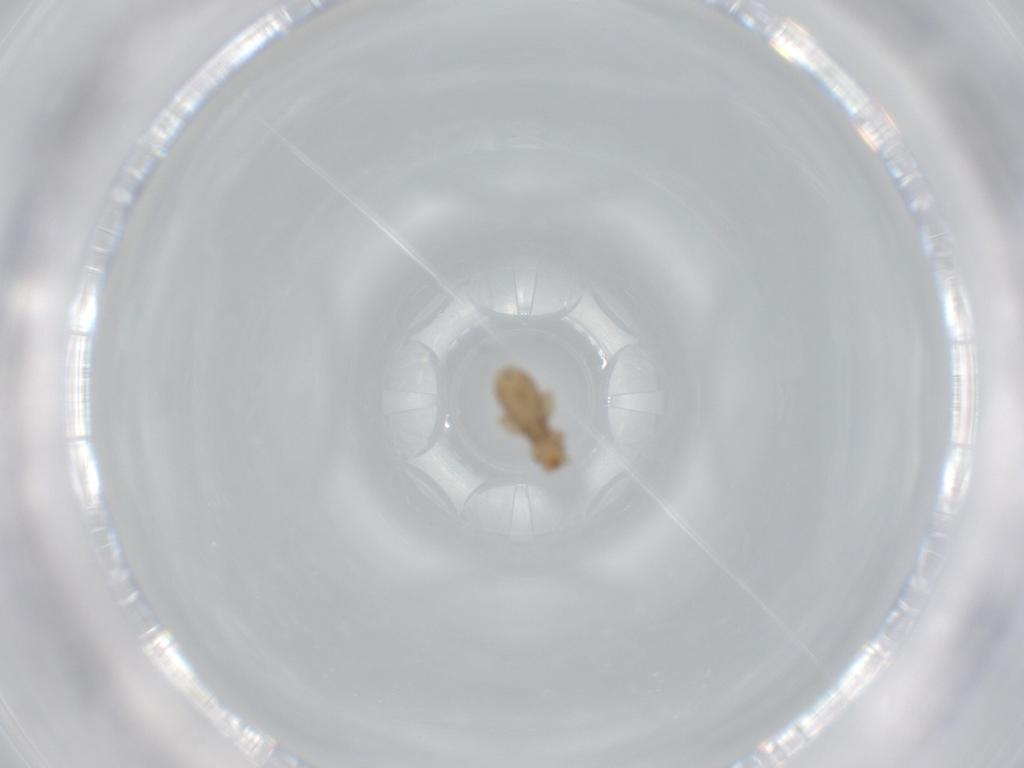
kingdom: Animalia
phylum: Arthropoda
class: Insecta
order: Psocodea
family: Liposcelididae
